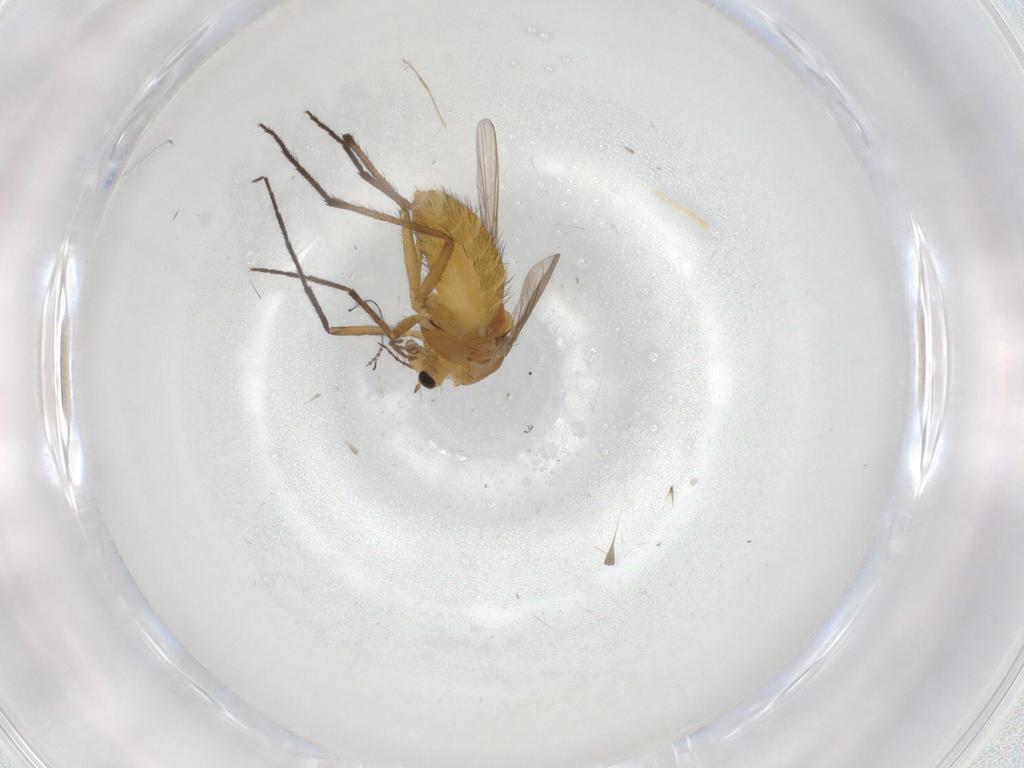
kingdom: Animalia
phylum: Arthropoda
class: Insecta
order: Diptera
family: Chironomidae
